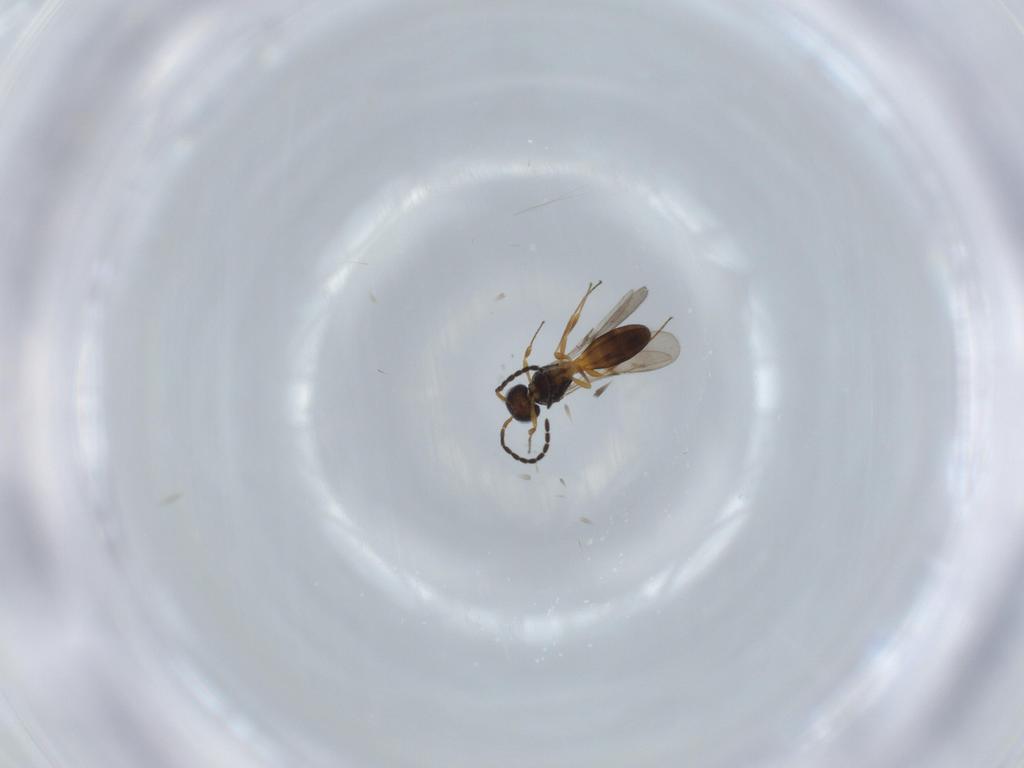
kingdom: Animalia
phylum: Arthropoda
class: Insecta
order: Hymenoptera
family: Scelionidae
